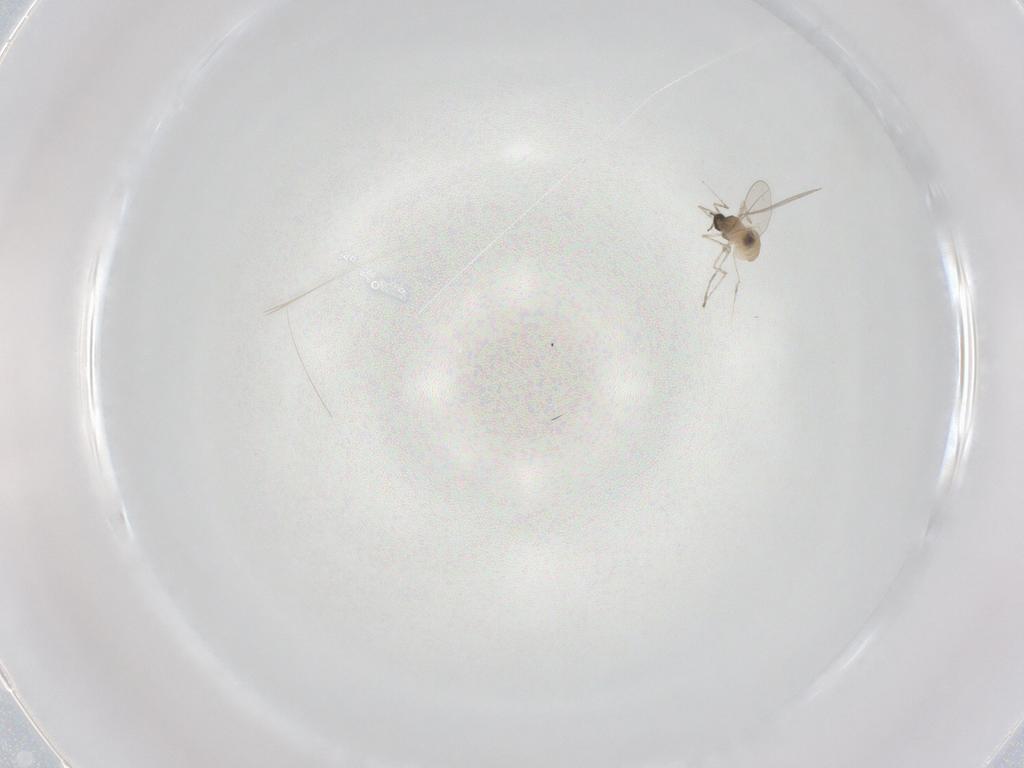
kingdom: Animalia
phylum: Arthropoda
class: Insecta
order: Diptera
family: Cecidomyiidae
